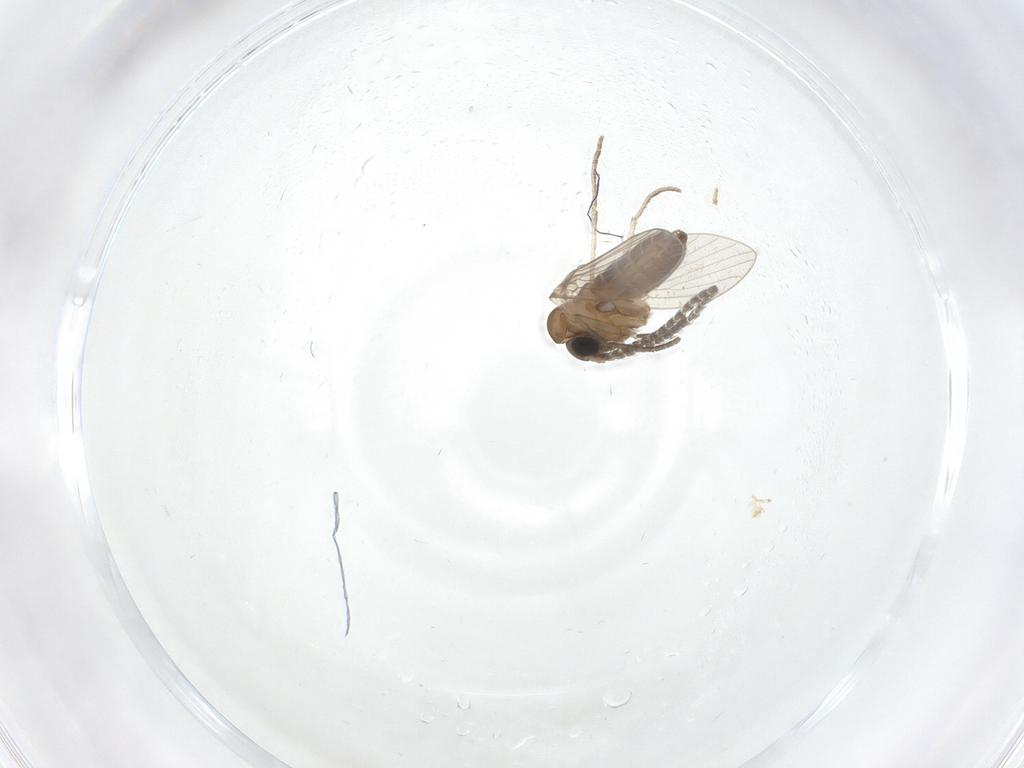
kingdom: Animalia
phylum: Arthropoda
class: Insecta
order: Diptera
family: Cecidomyiidae
